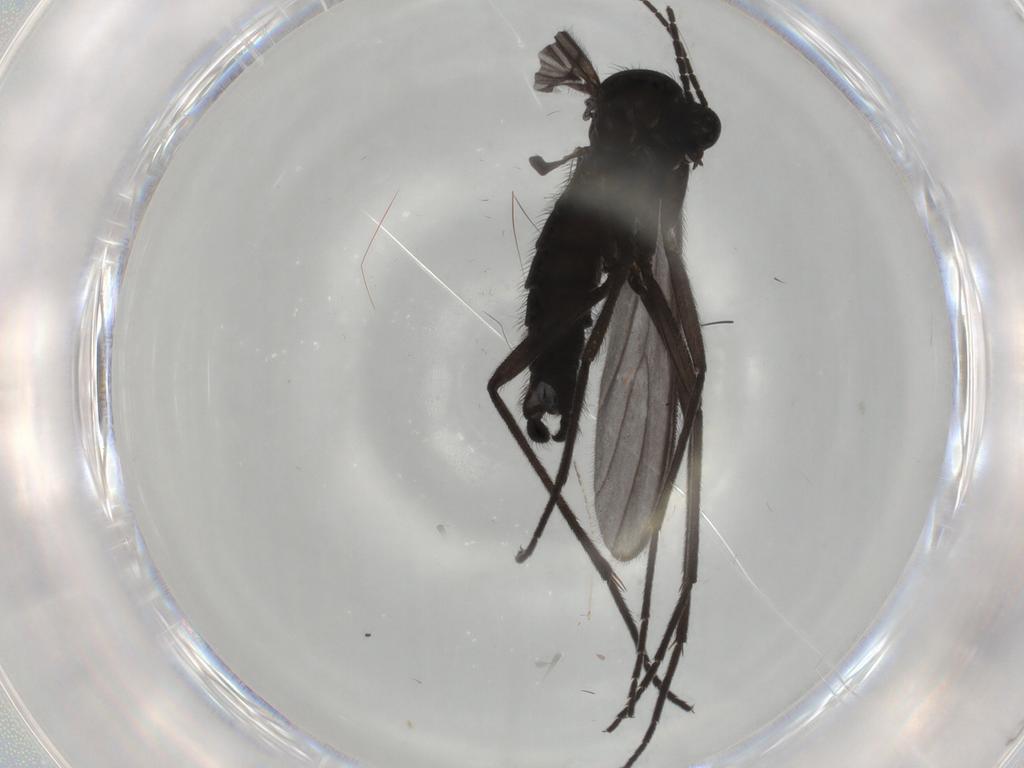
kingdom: Animalia
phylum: Arthropoda
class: Insecta
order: Diptera
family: Sciaridae
